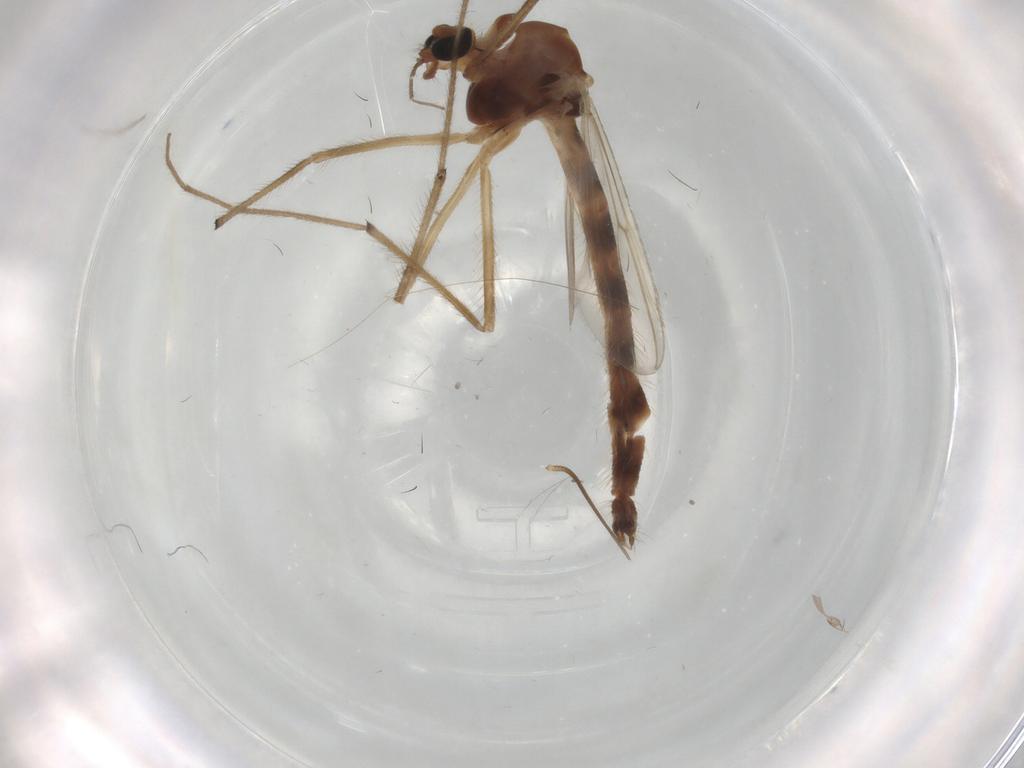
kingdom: Animalia
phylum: Arthropoda
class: Insecta
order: Diptera
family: Chironomidae
